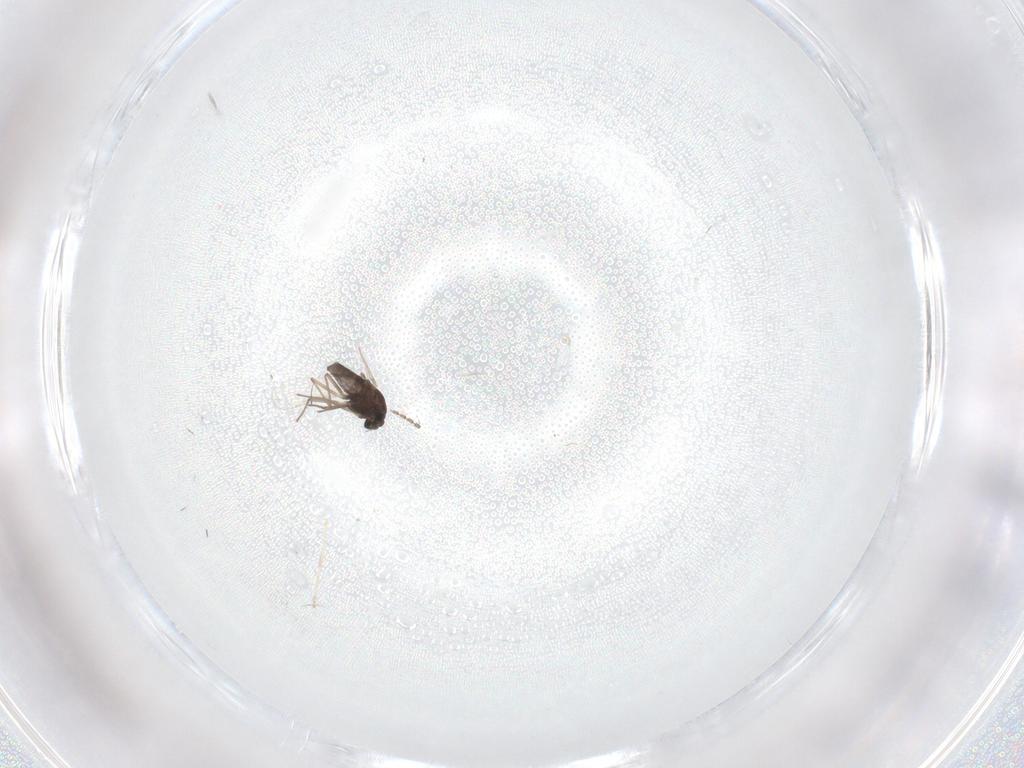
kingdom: Animalia
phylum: Arthropoda
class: Insecta
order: Diptera
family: Chironomidae
